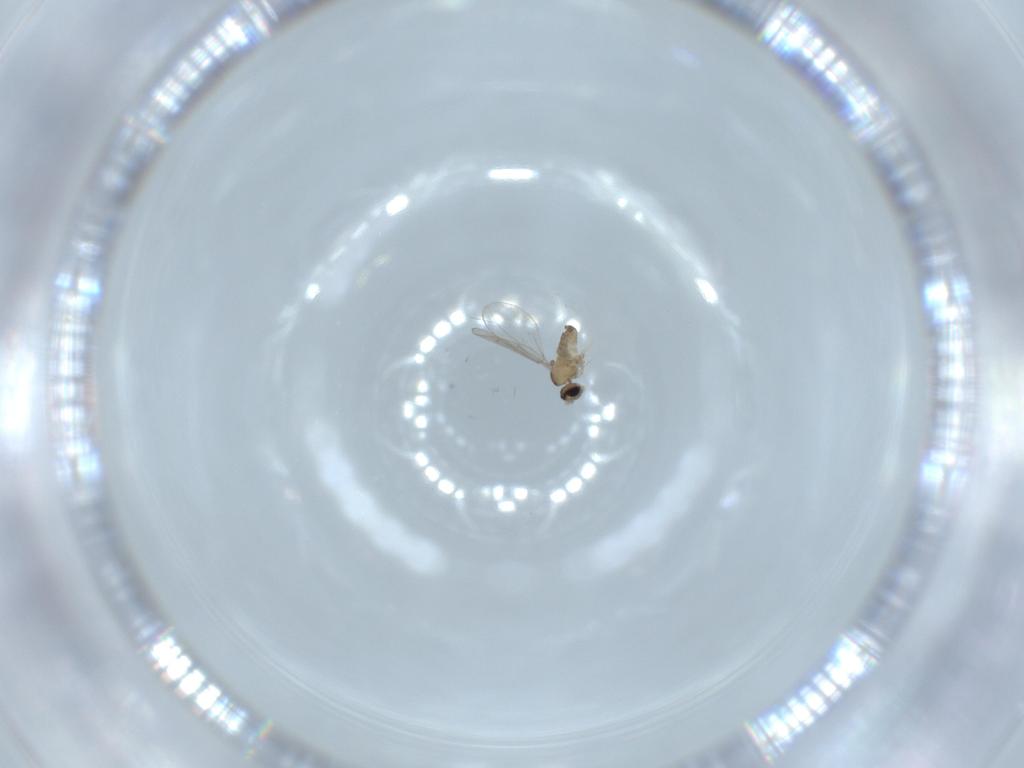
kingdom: Animalia
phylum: Arthropoda
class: Insecta
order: Diptera
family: Cecidomyiidae
